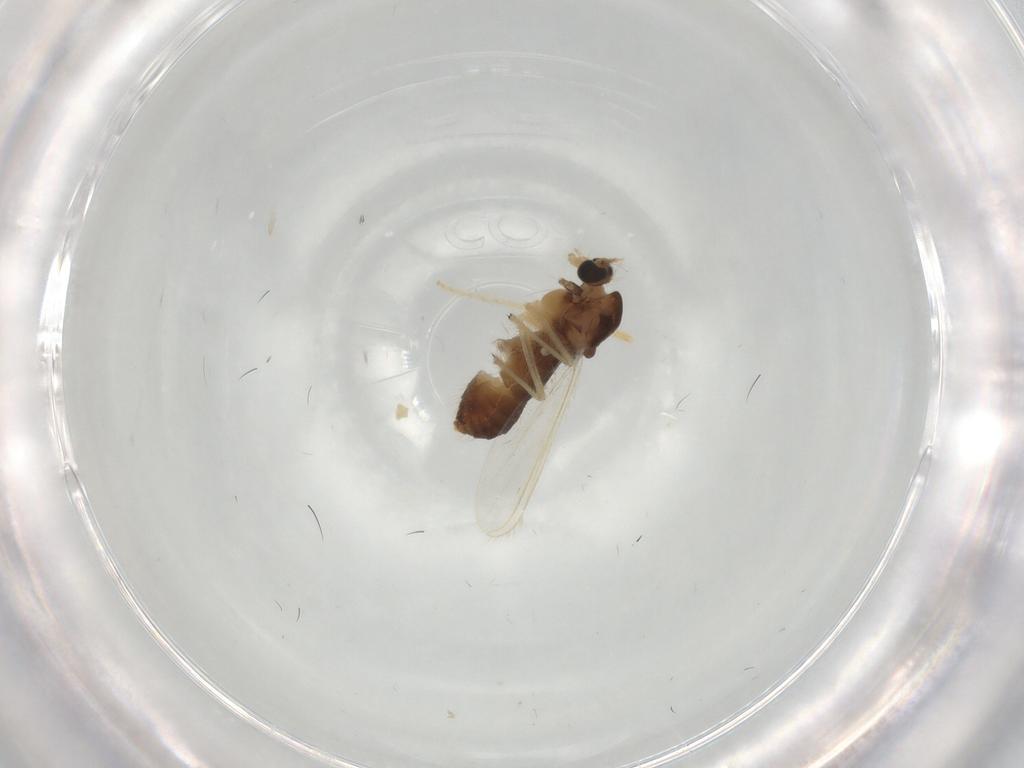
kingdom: Animalia
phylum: Arthropoda
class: Insecta
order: Diptera
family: Chironomidae
